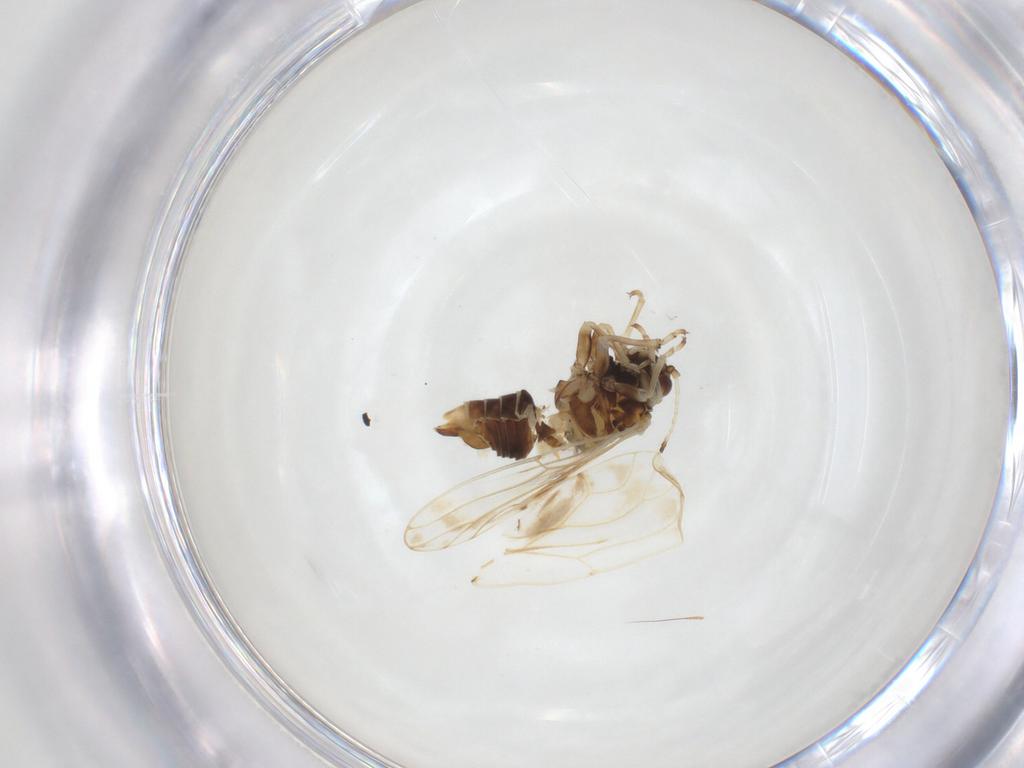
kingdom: Animalia
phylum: Arthropoda
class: Insecta
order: Hemiptera
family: Aphalaridae
